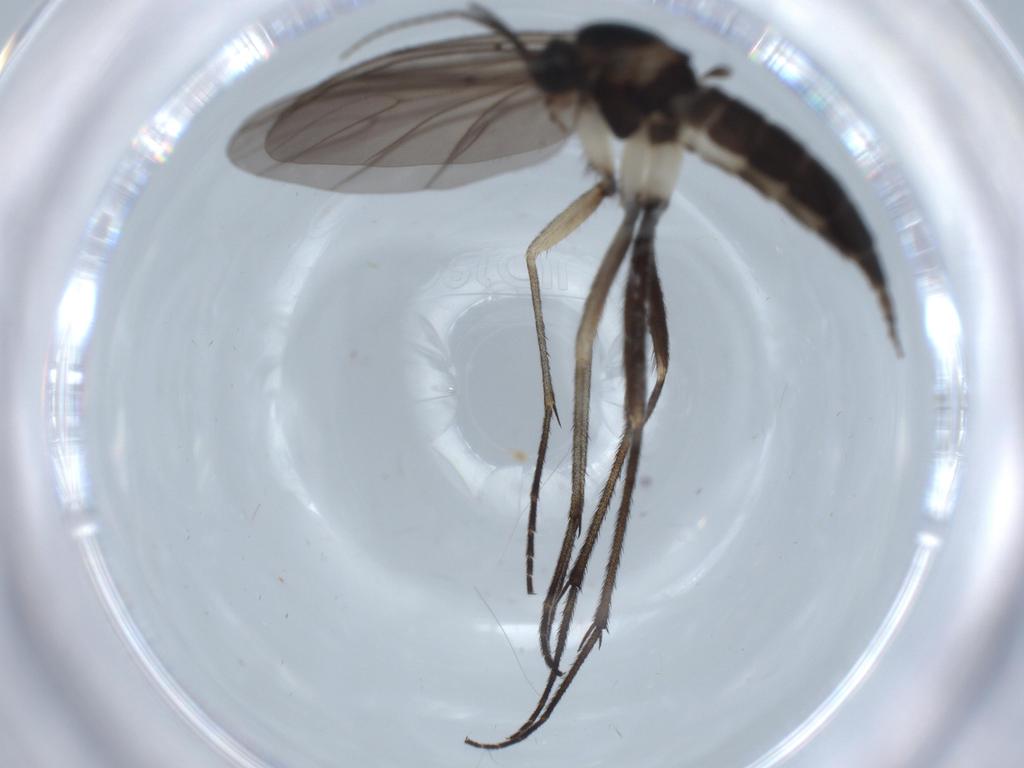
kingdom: Animalia
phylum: Arthropoda
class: Insecta
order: Diptera
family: Sciaridae
